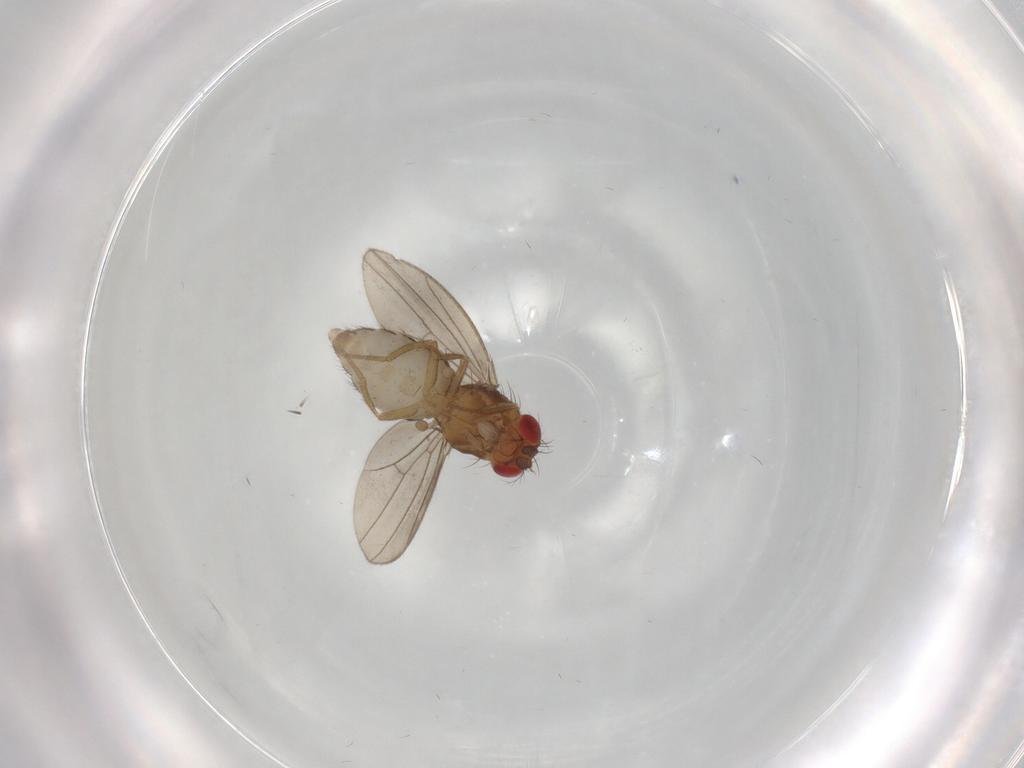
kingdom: Animalia
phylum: Arthropoda
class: Insecta
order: Diptera
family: Drosophilidae
